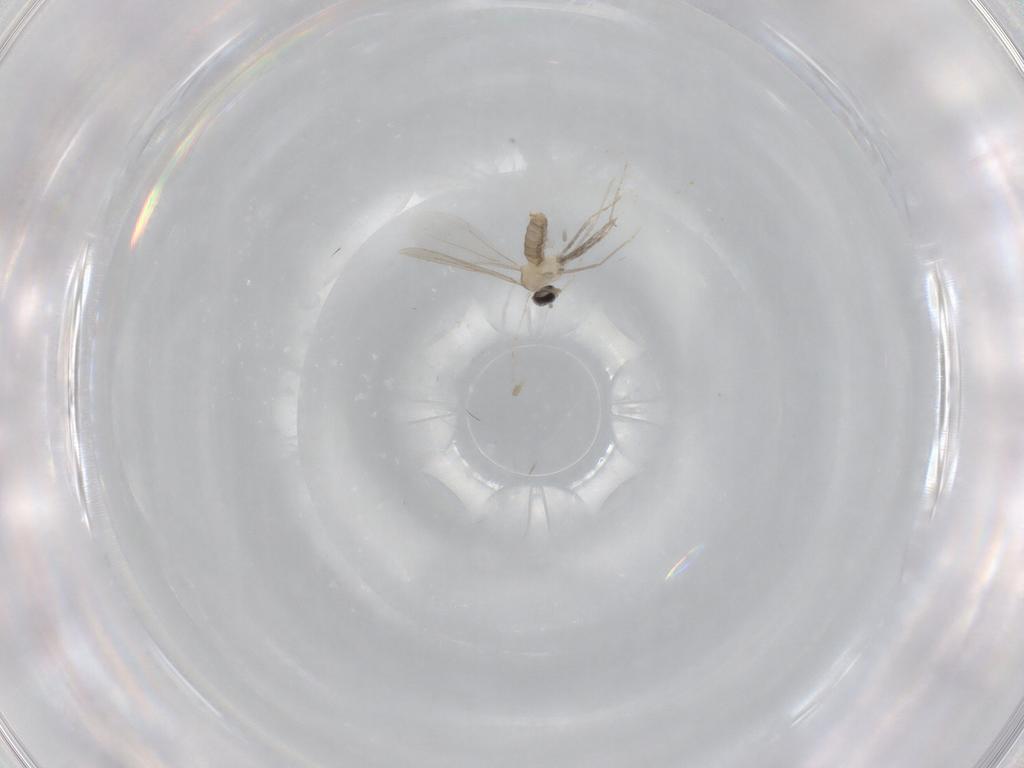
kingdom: Animalia
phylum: Arthropoda
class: Insecta
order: Diptera
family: Cecidomyiidae
